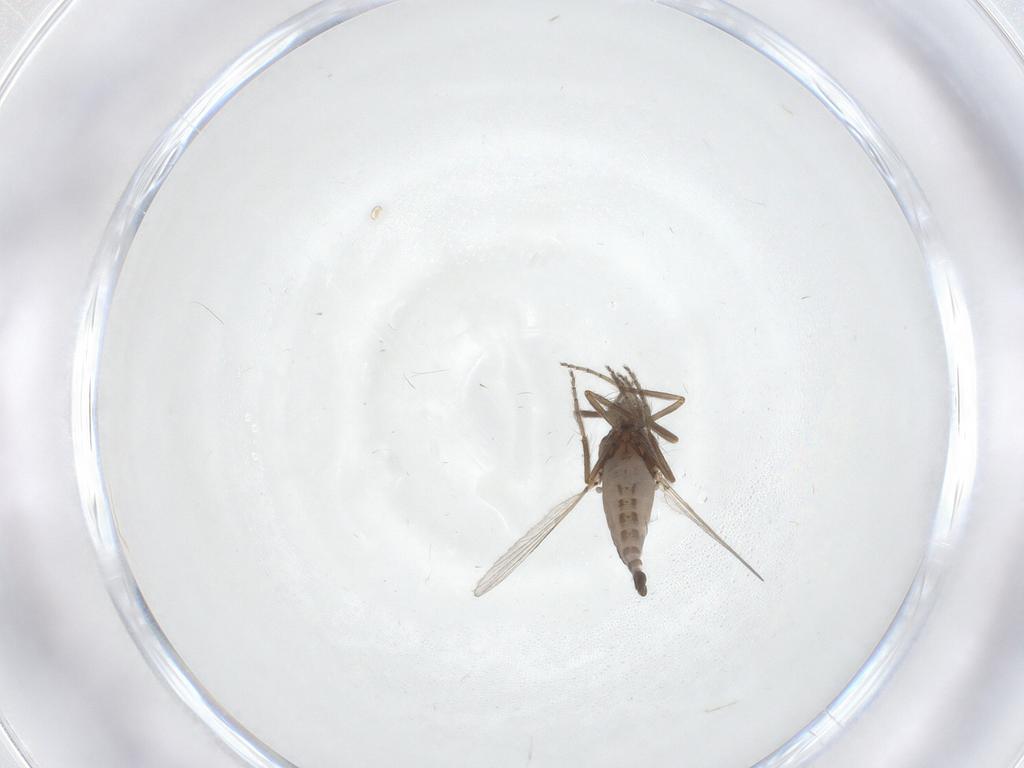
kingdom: Animalia
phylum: Arthropoda
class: Insecta
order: Diptera
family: Ceratopogonidae
